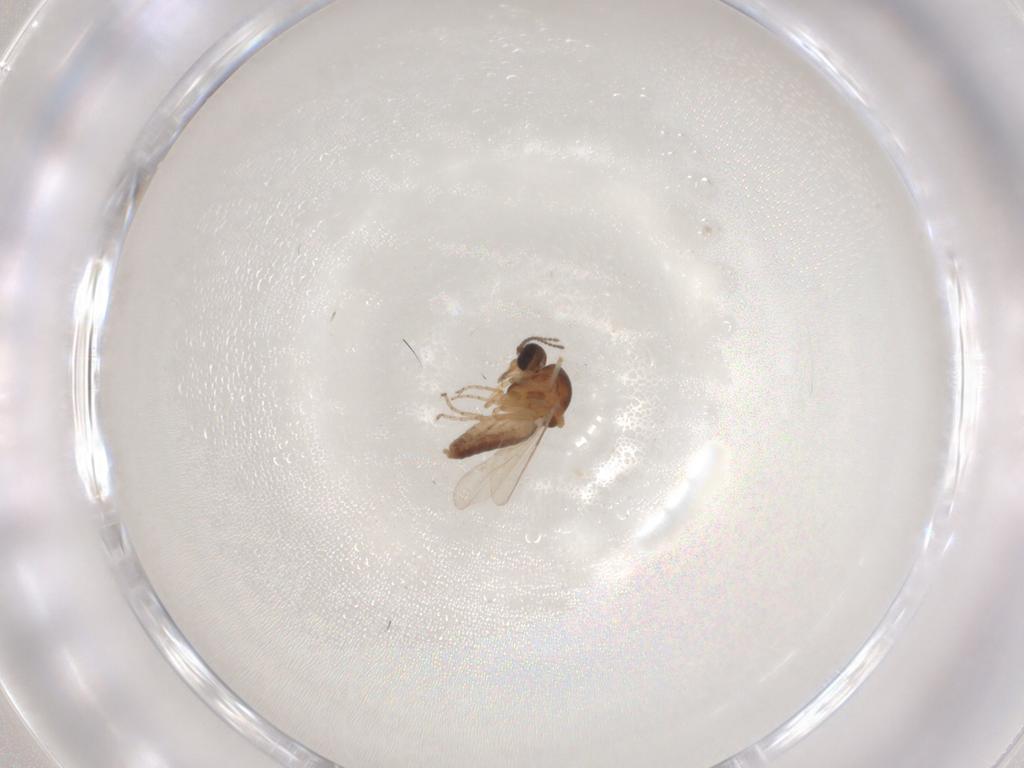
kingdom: Animalia
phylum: Arthropoda
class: Insecta
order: Diptera
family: Ceratopogonidae
